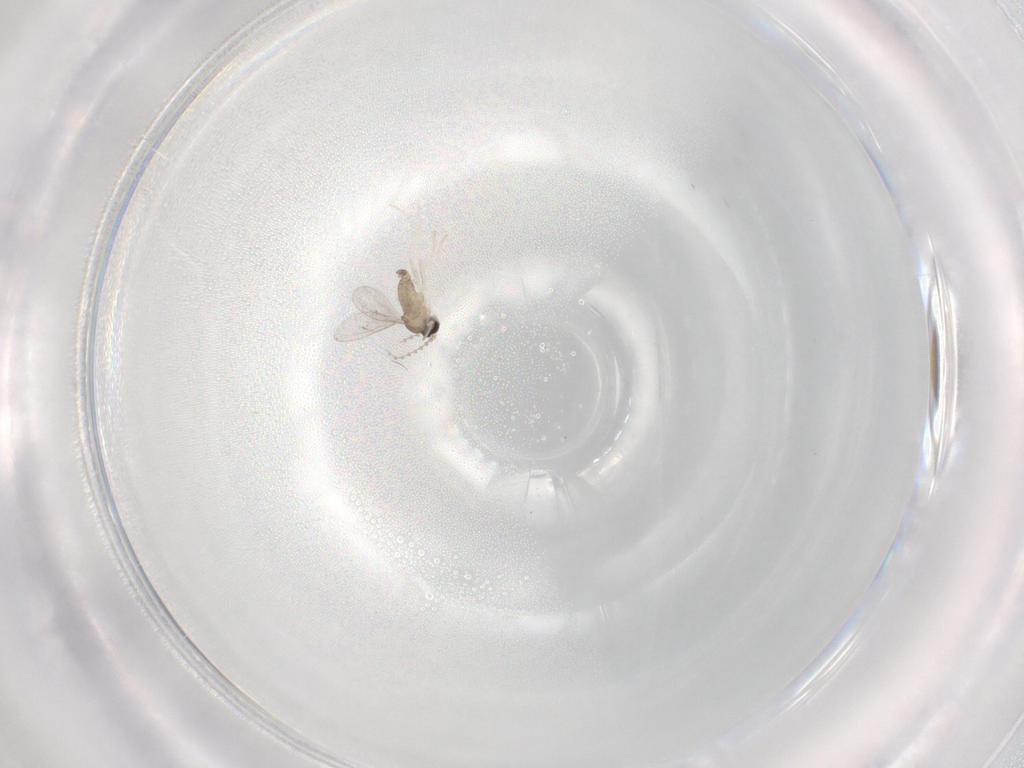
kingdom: Animalia
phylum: Arthropoda
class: Insecta
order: Diptera
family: Cecidomyiidae
